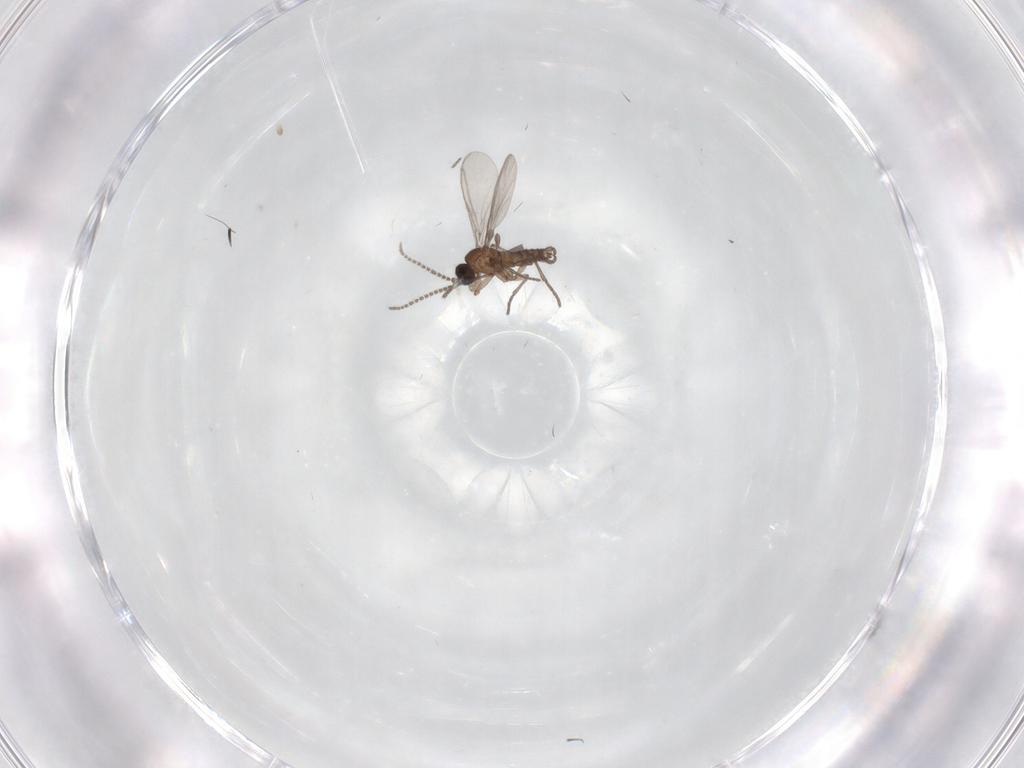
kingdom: Animalia
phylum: Arthropoda
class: Insecta
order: Diptera
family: Sciaridae
